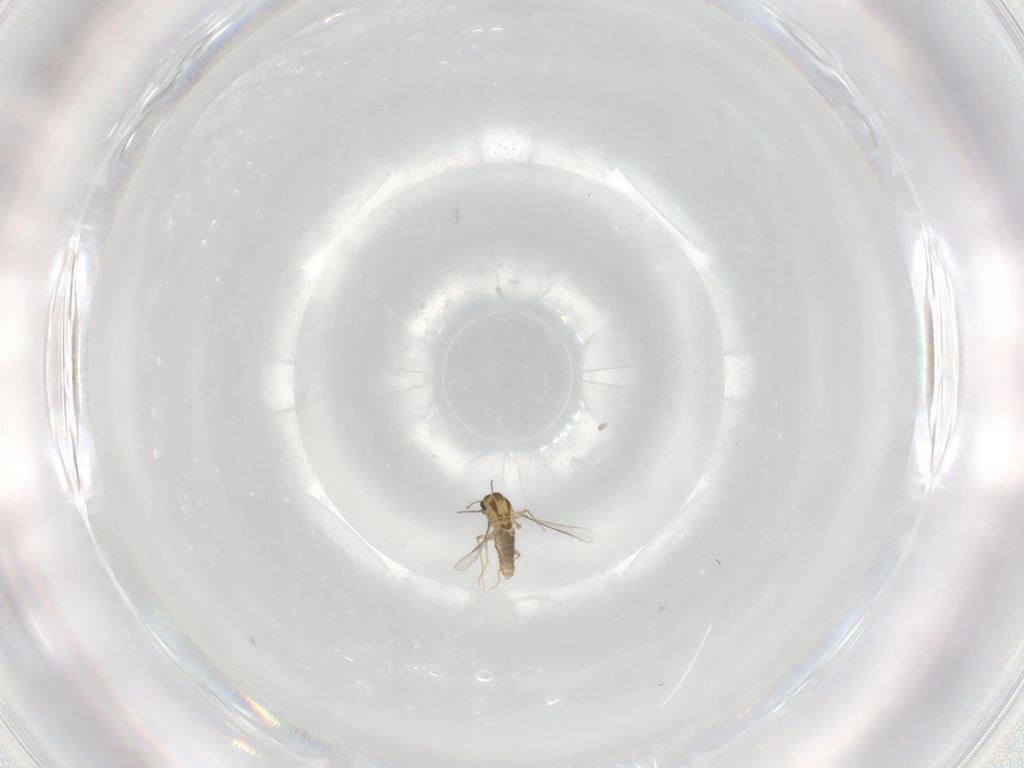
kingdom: Animalia
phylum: Arthropoda
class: Insecta
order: Diptera
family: Chironomidae
